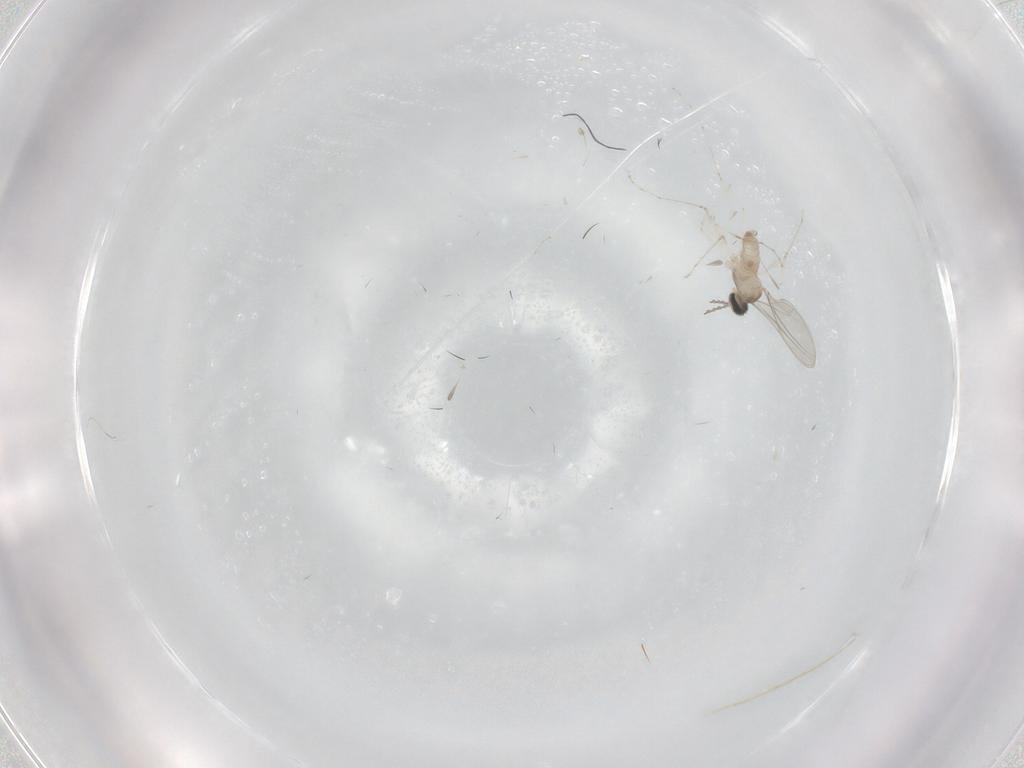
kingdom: Animalia
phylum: Arthropoda
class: Insecta
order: Diptera
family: Cecidomyiidae
